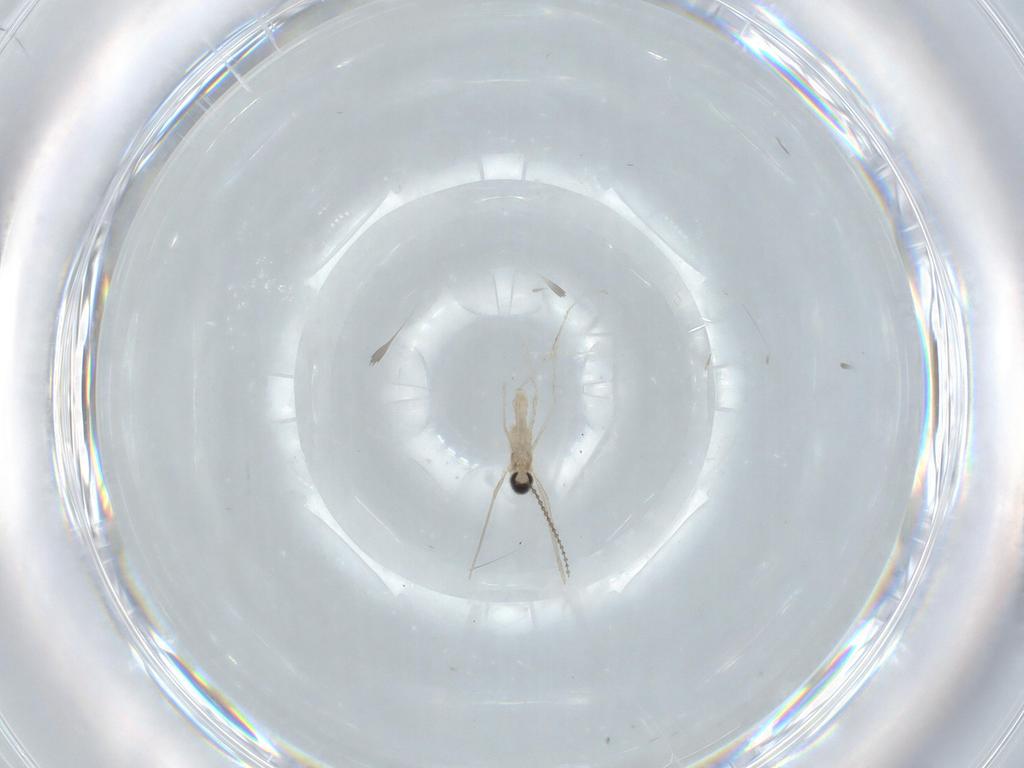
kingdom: Animalia
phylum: Arthropoda
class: Insecta
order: Diptera
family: Cecidomyiidae
